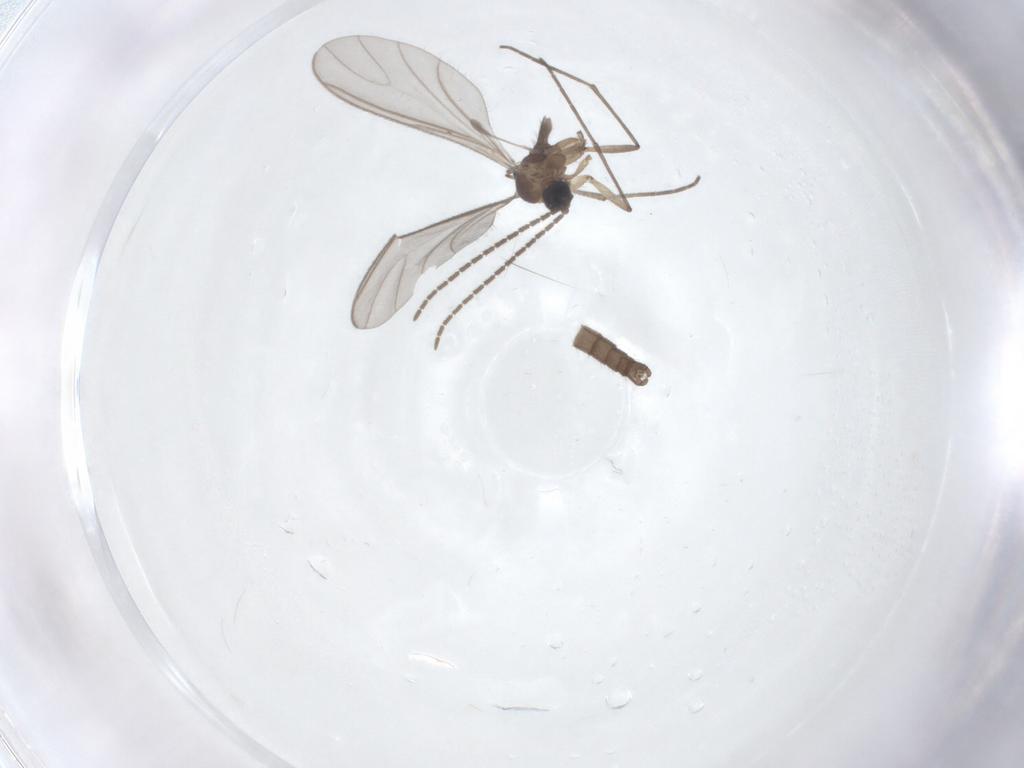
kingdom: Animalia
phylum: Arthropoda
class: Insecta
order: Diptera
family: Sciaridae
